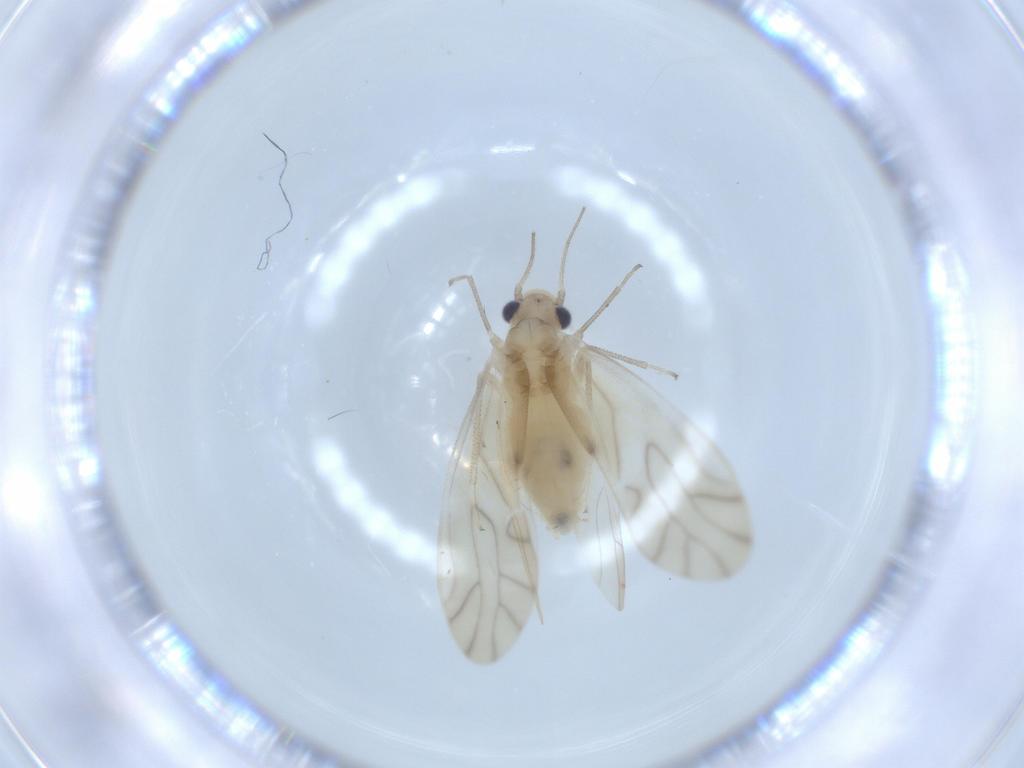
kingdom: Animalia
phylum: Arthropoda
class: Insecta
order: Psocodea
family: Caeciliusidae
